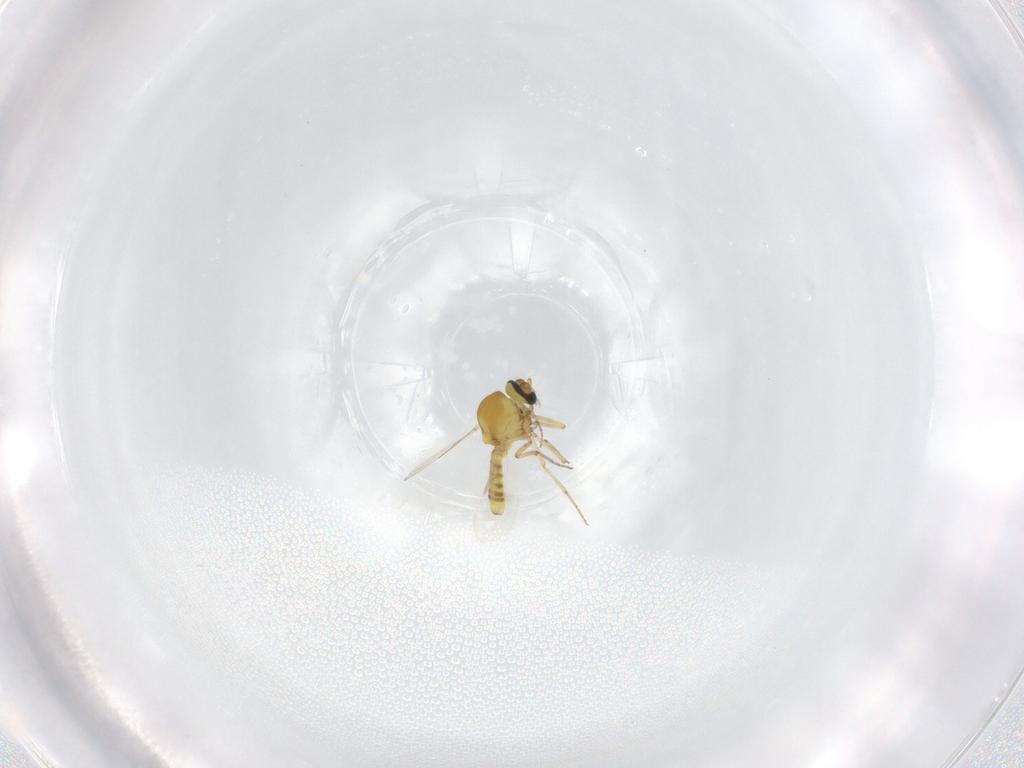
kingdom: Animalia
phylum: Arthropoda
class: Insecta
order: Diptera
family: Ceratopogonidae
